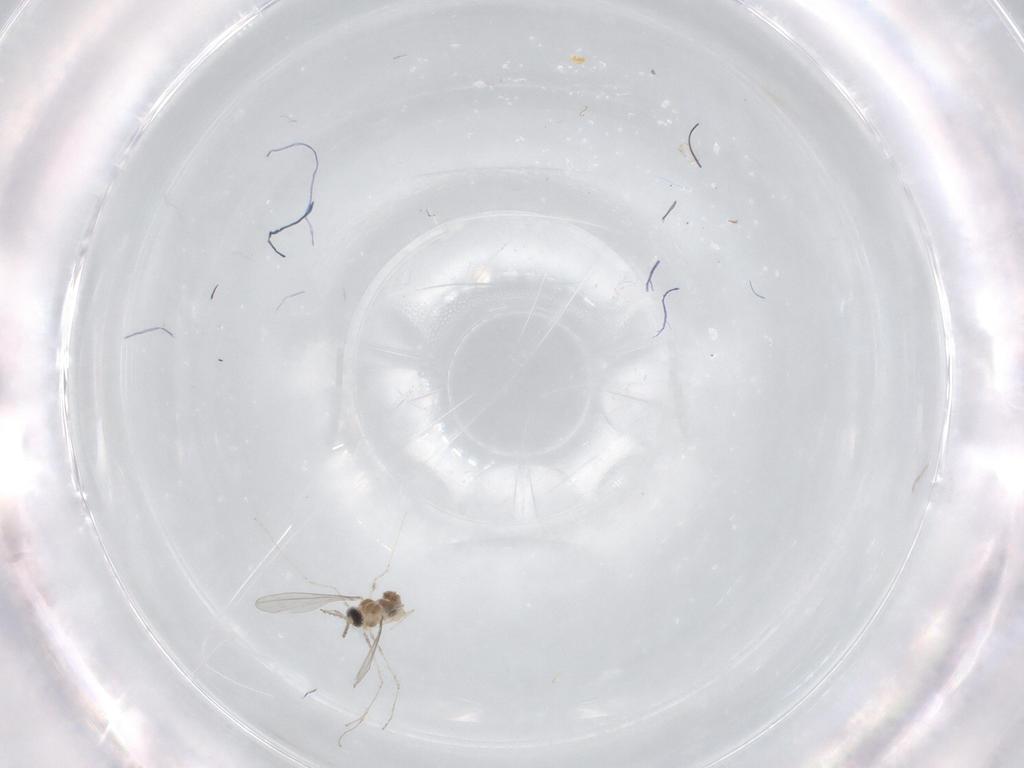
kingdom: Animalia
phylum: Arthropoda
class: Insecta
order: Diptera
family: Cecidomyiidae
